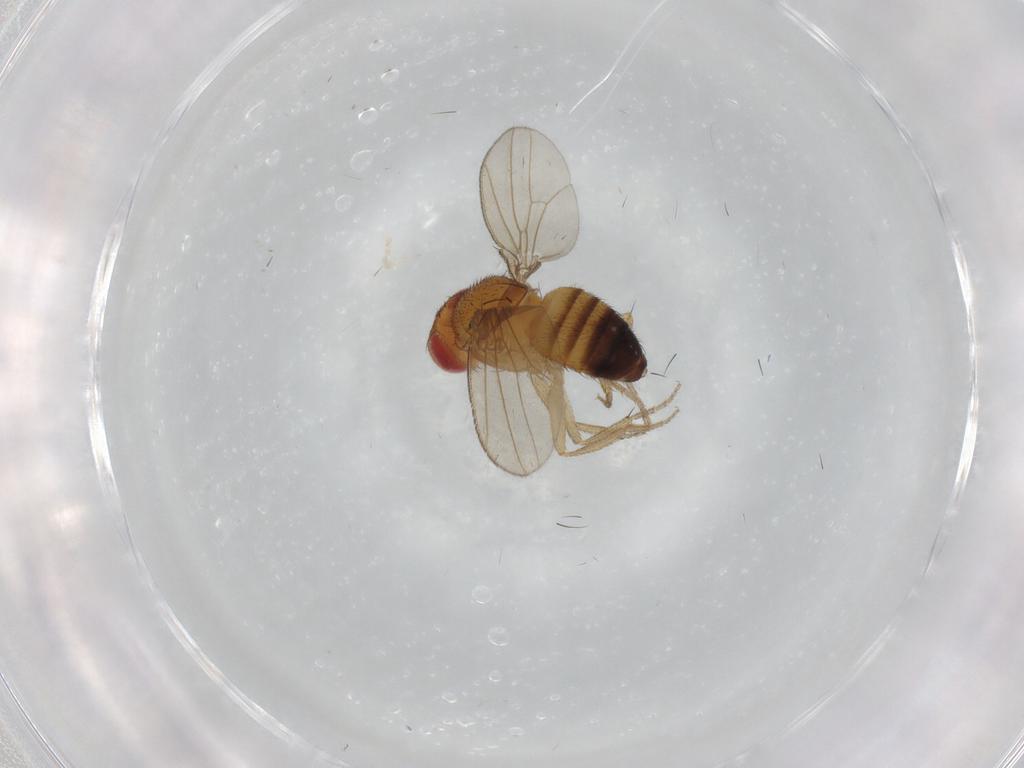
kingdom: Animalia
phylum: Arthropoda
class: Insecta
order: Diptera
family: Drosophilidae
